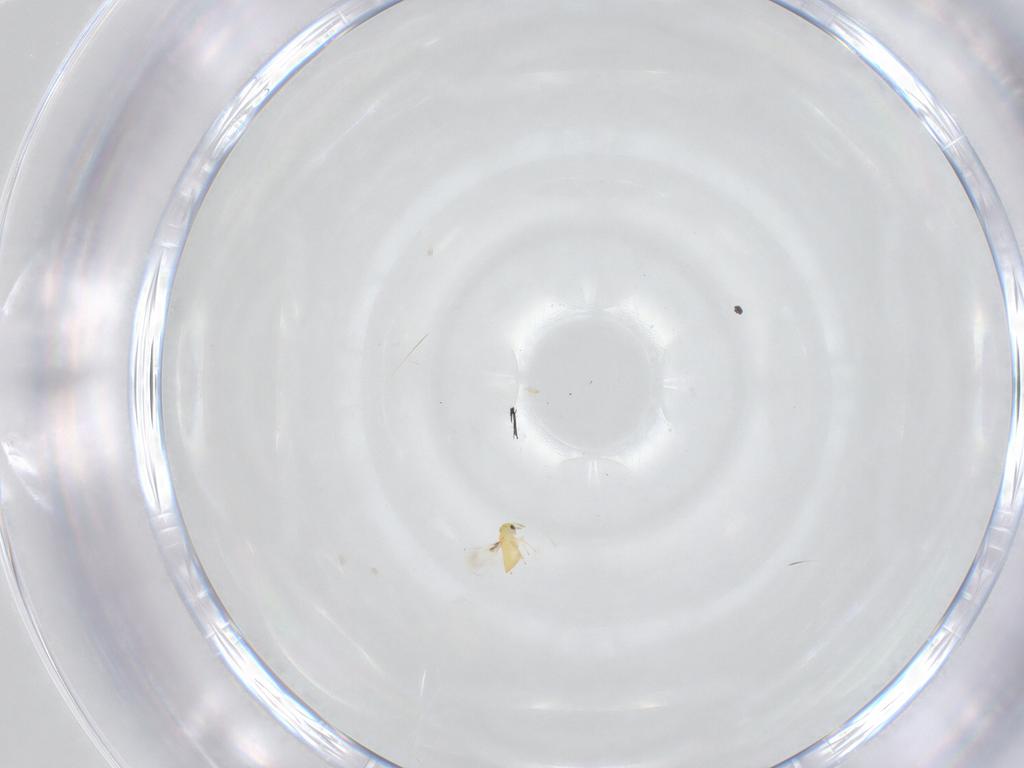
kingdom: Animalia
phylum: Arthropoda
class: Insecta
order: Hymenoptera
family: Trichogrammatidae
